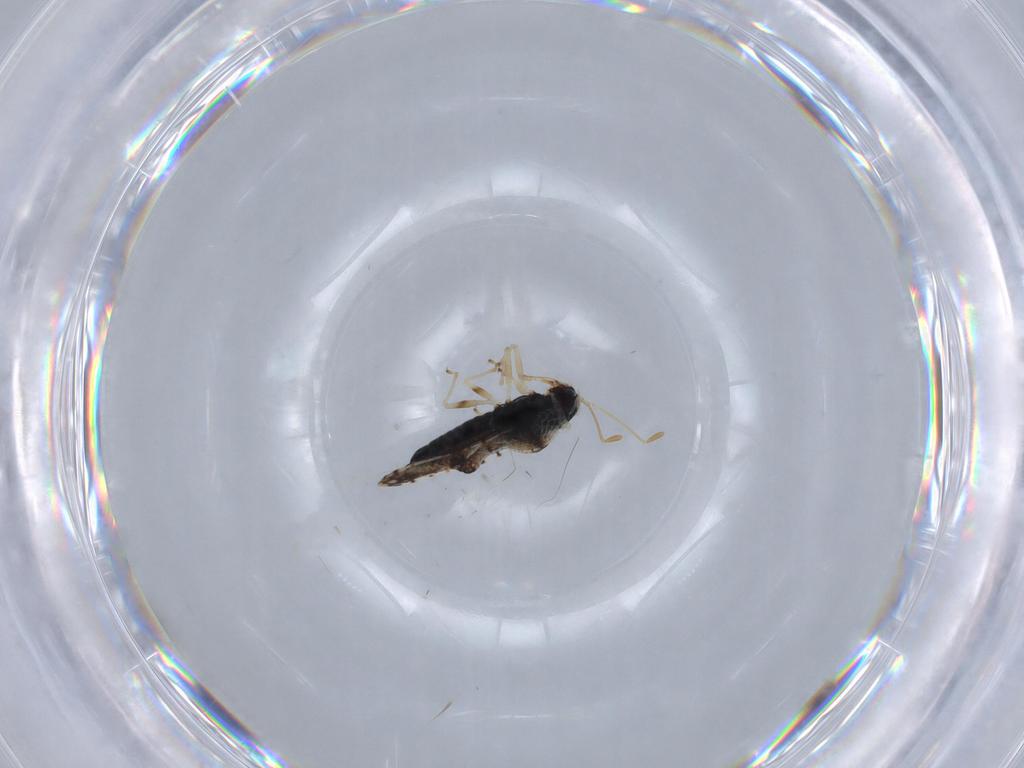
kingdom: Animalia
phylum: Arthropoda
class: Insecta
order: Hemiptera
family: Tingidae
